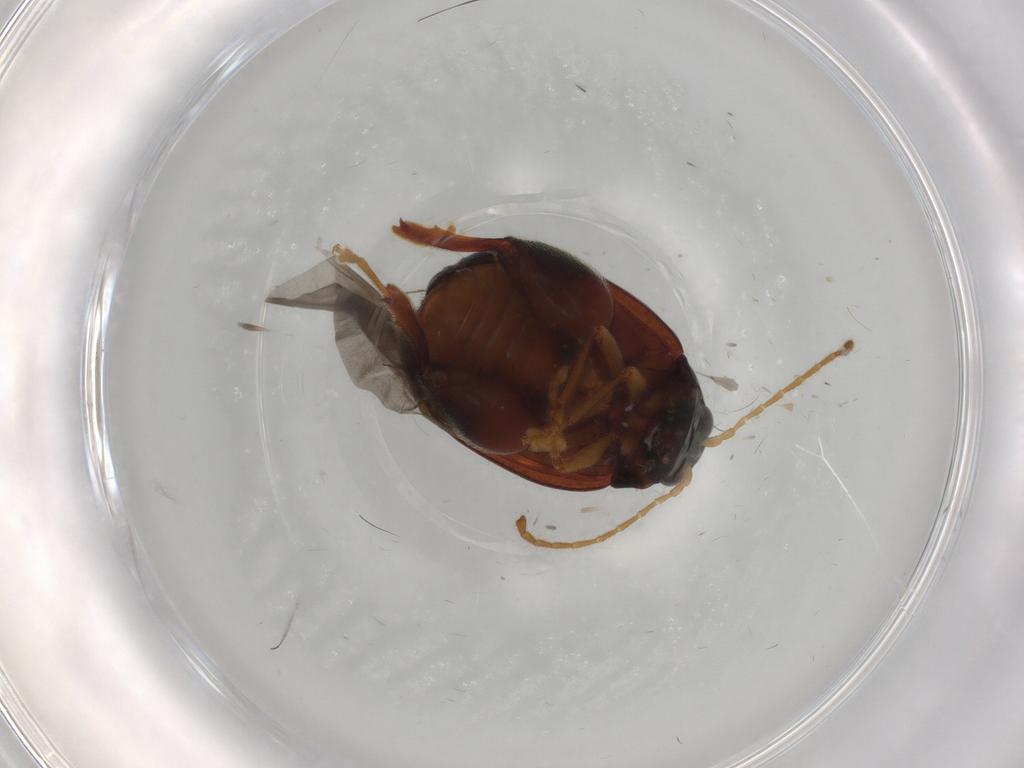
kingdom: Animalia
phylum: Arthropoda
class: Insecta
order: Coleoptera
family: Chrysomelidae
